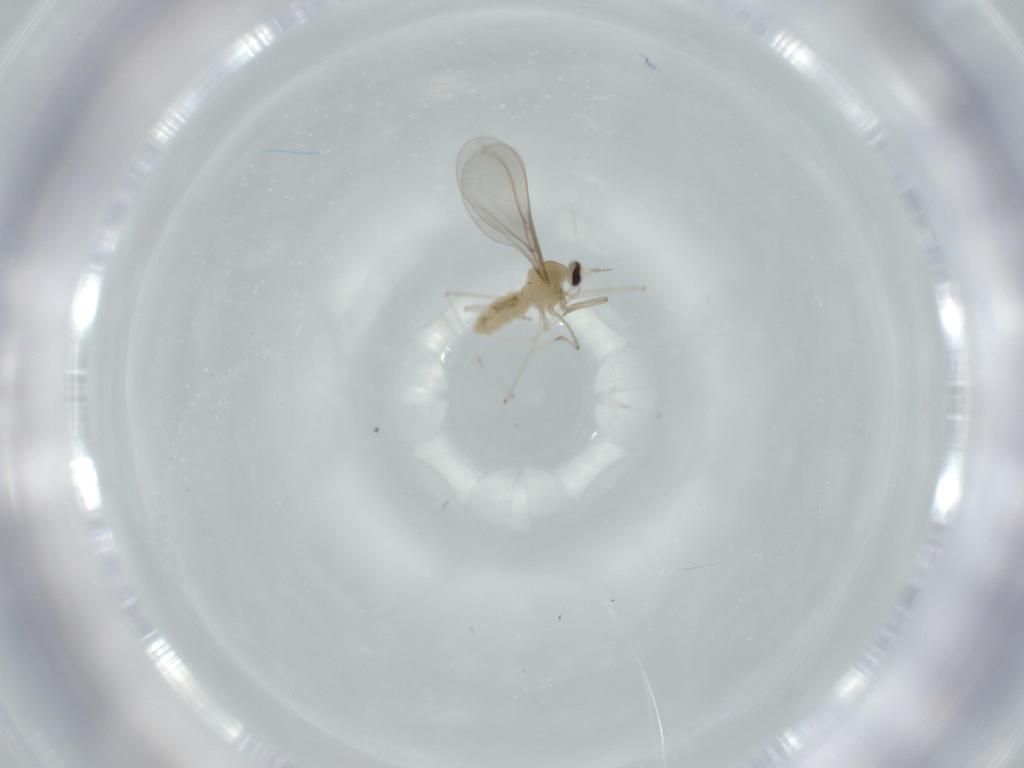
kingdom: Animalia
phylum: Arthropoda
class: Insecta
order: Diptera
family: Cecidomyiidae
